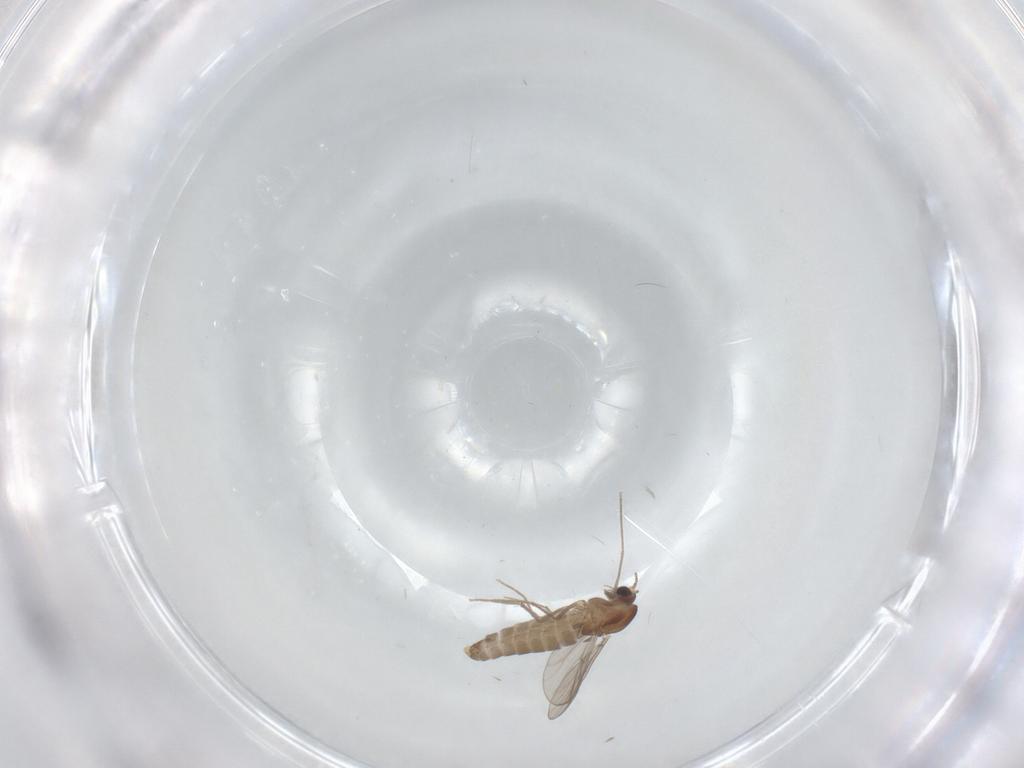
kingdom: Animalia
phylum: Arthropoda
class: Insecta
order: Diptera
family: Chironomidae
